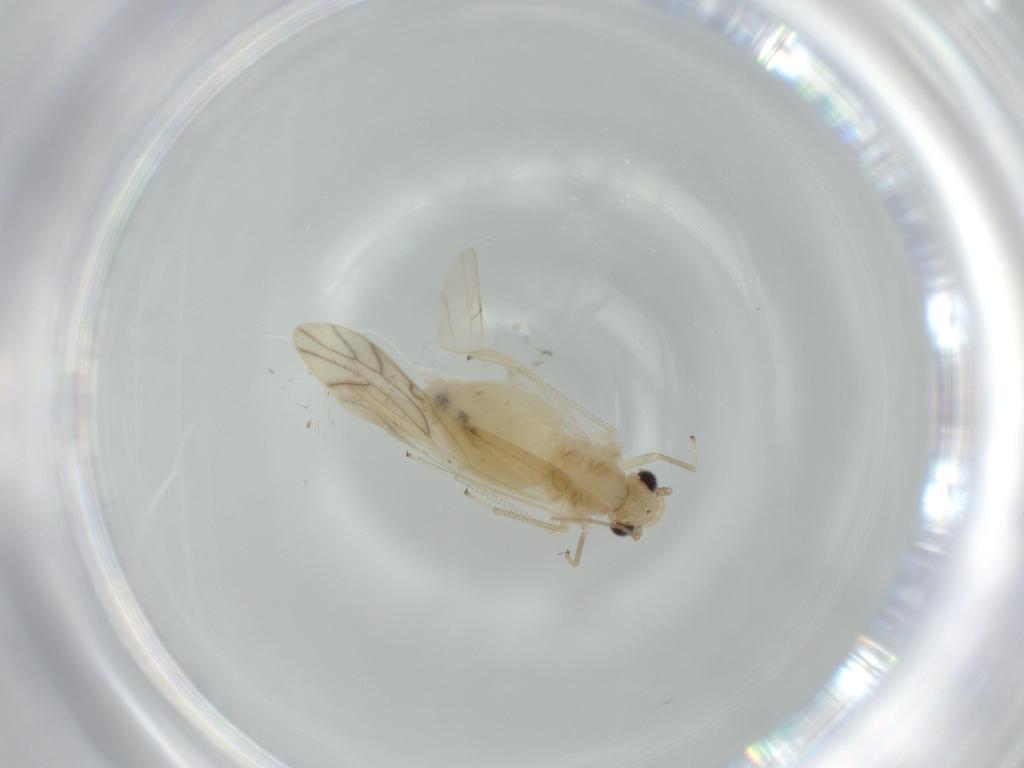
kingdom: Animalia
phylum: Arthropoda
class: Insecta
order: Psocodea
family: Caeciliusidae
